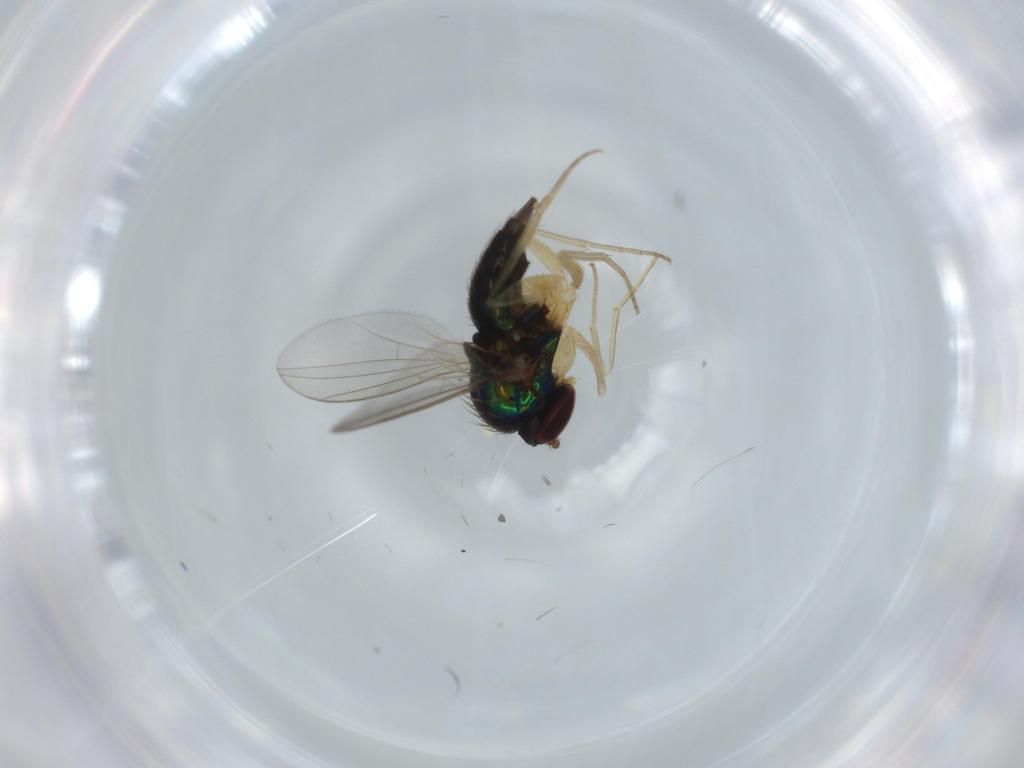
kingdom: Animalia
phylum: Arthropoda
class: Insecta
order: Diptera
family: Dolichopodidae
